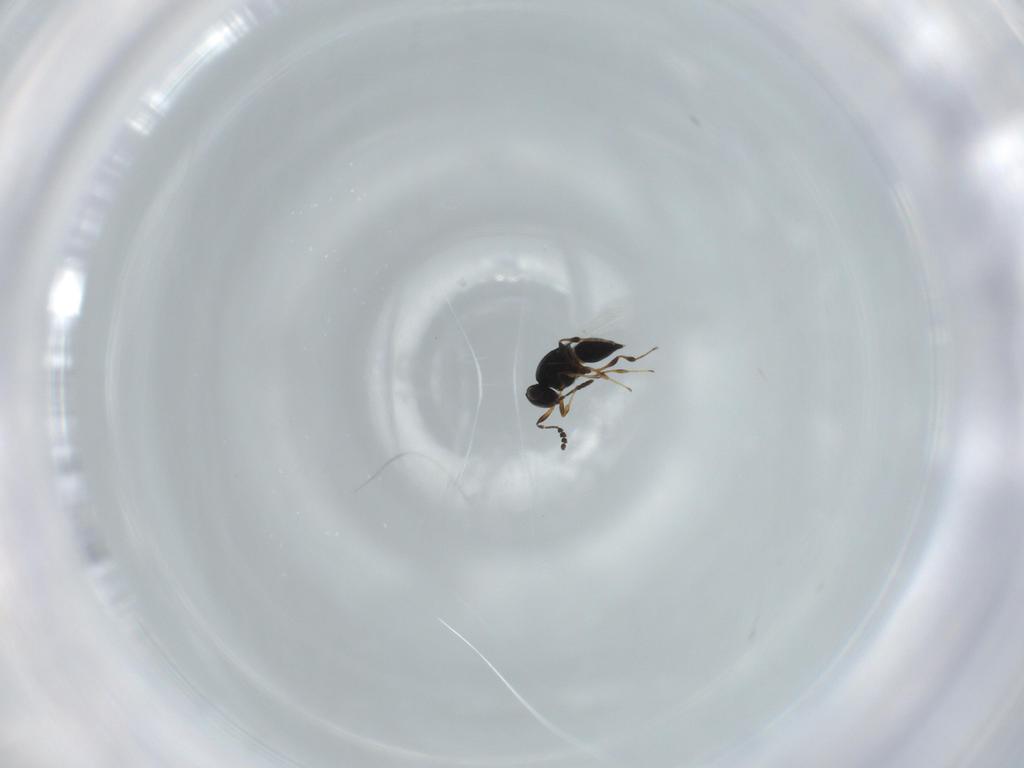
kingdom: Animalia
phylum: Arthropoda
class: Insecta
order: Hymenoptera
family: Platygastridae
